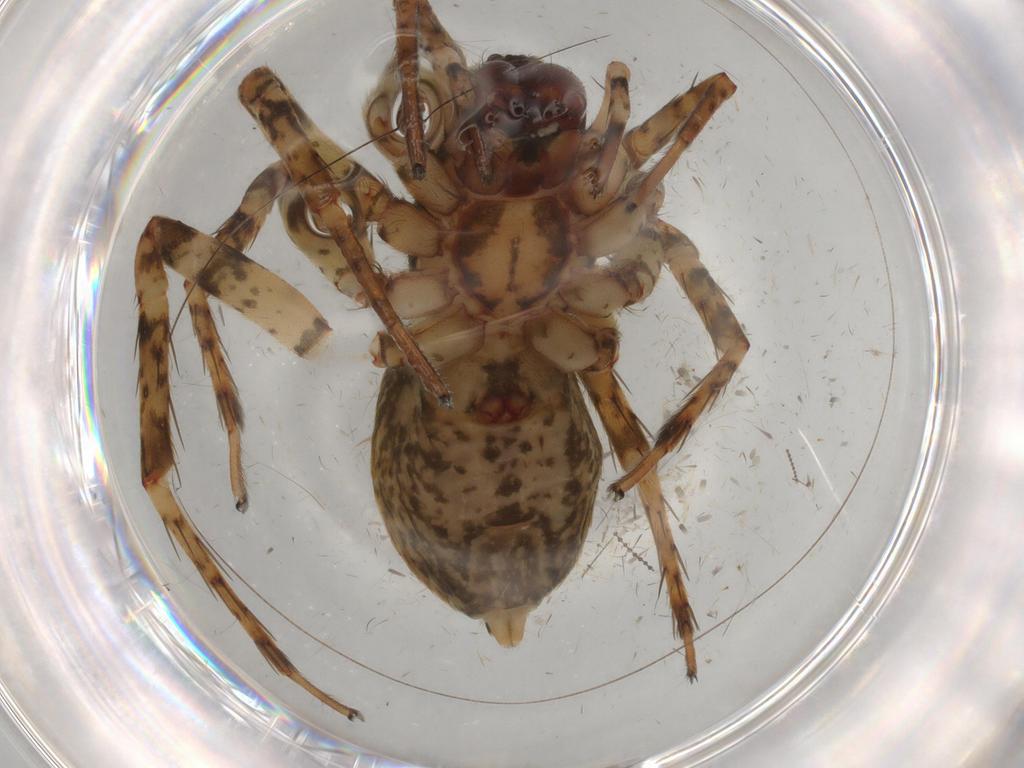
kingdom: Animalia
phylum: Arthropoda
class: Arachnida
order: Araneae
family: Anyphaenidae
